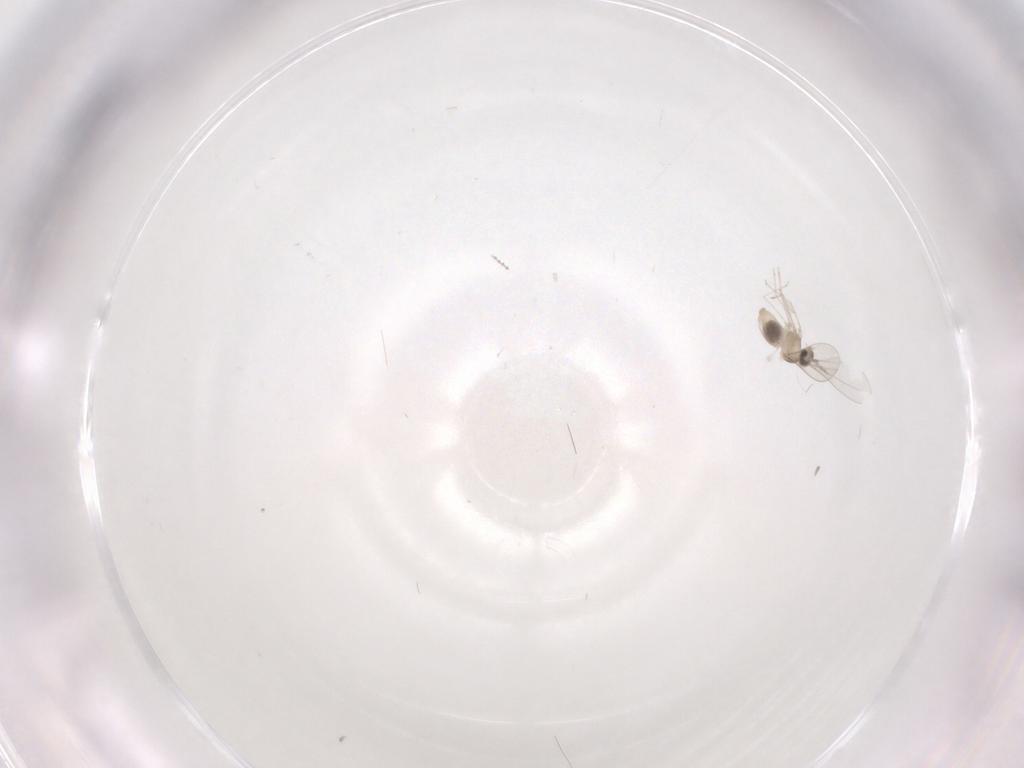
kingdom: Animalia
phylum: Arthropoda
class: Insecta
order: Diptera
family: Cecidomyiidae
